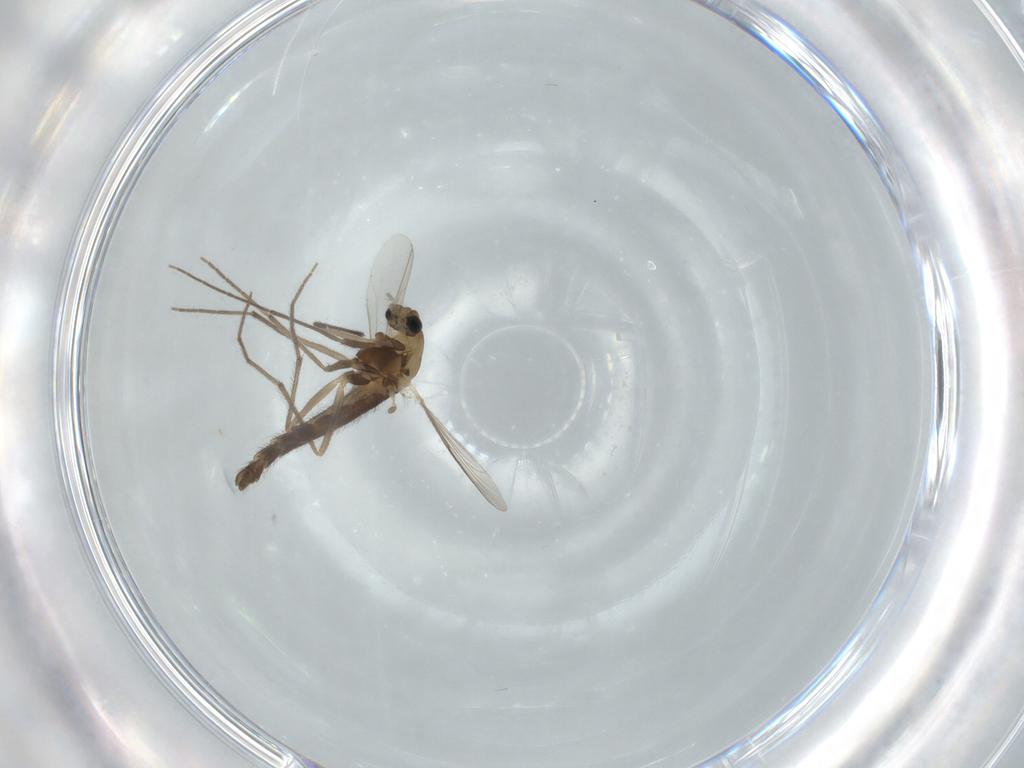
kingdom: Animalia
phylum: Arthropoda
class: Insecta
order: Diptera
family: Chironomidae
